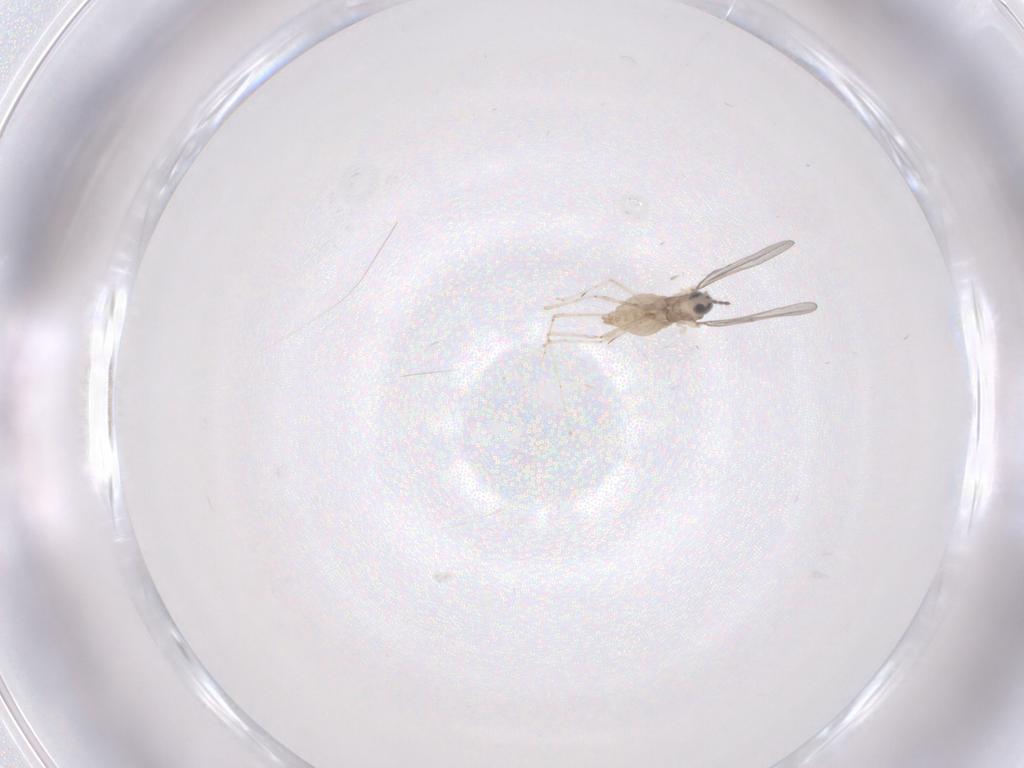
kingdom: Animalia
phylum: Arthropoda
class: Insecta
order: Diptera
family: Cecidomyiidae
